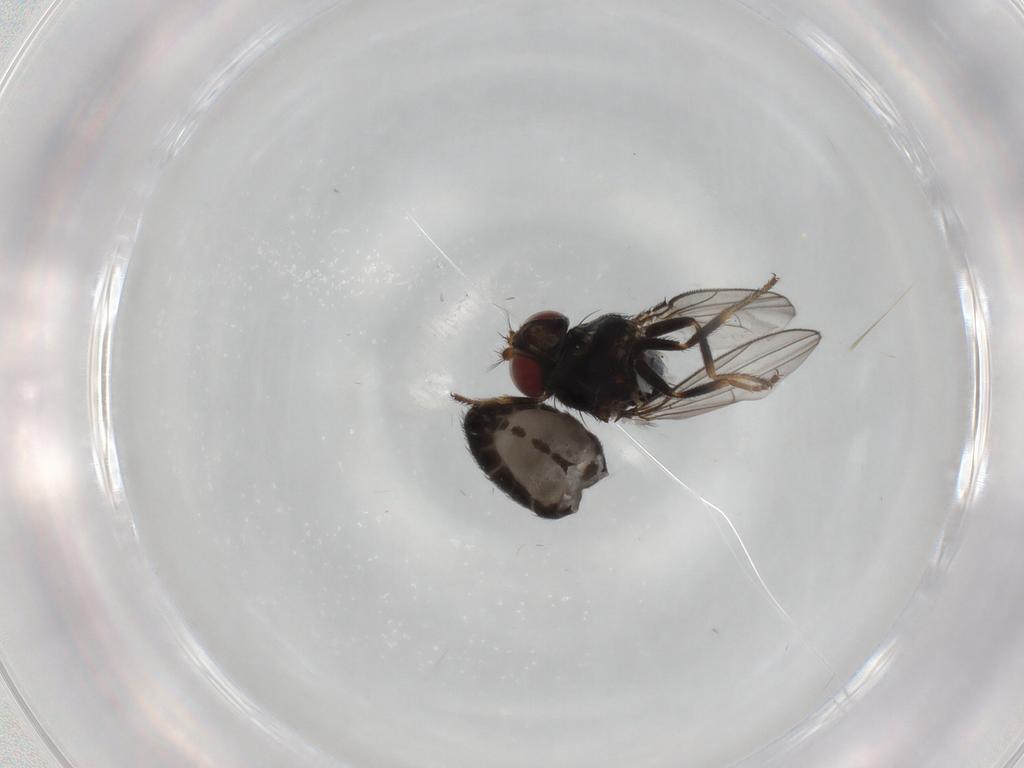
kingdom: Animalia
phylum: Arthropoda
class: Insecta
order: Diptera
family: Ephydridae
